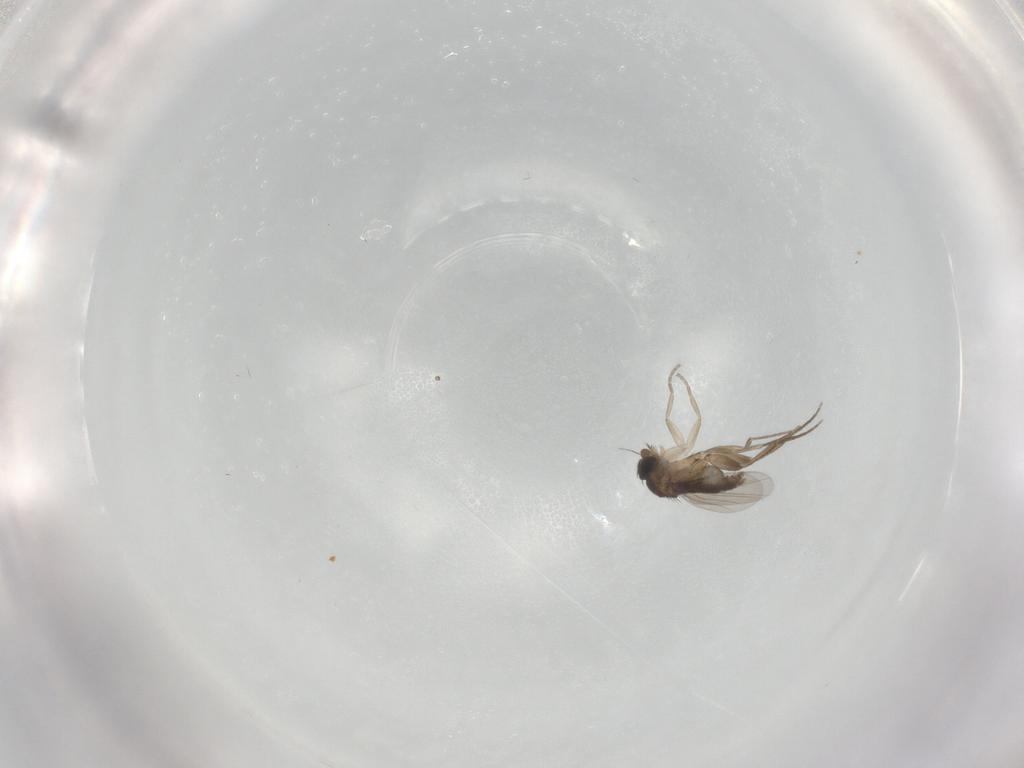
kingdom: Animalia
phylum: Arthropoda
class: Insecta
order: Diptera
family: Phoridae
